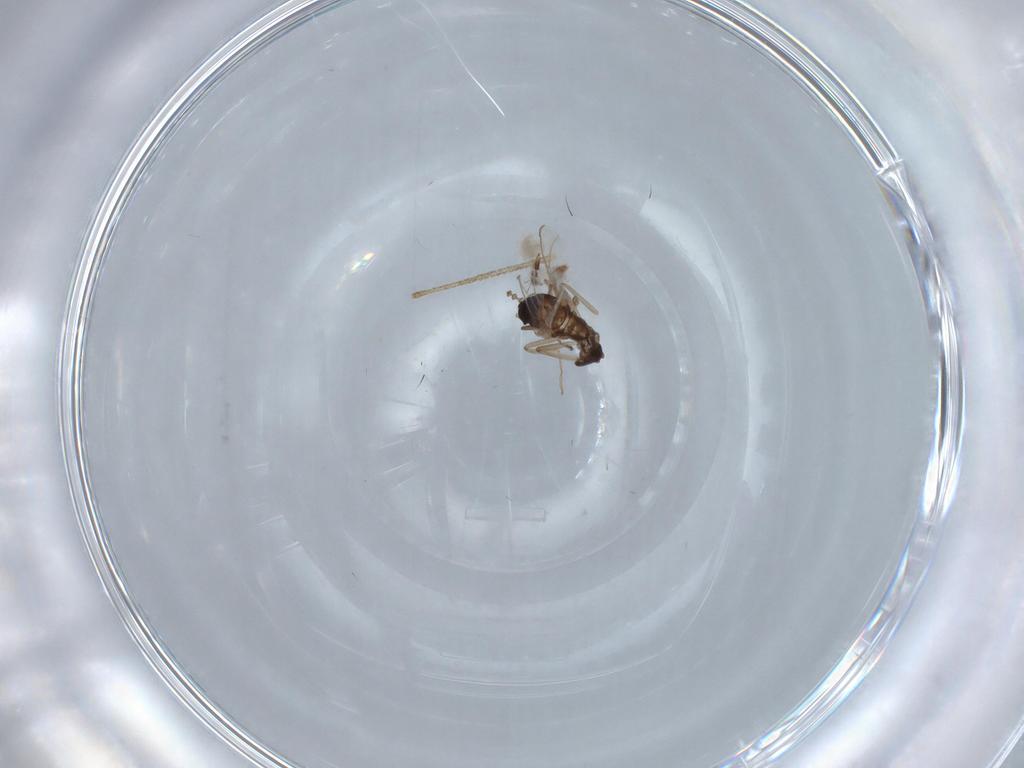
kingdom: Animalia
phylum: Arthropoda
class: Insecta
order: Diptera
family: Cecidomyiidae
